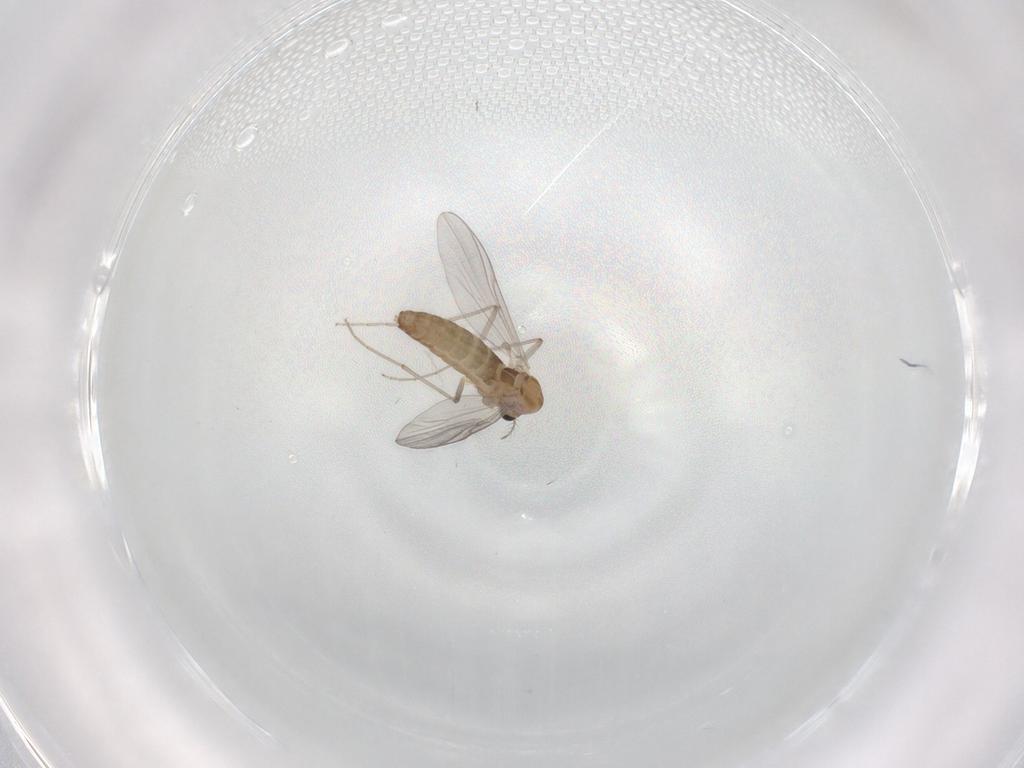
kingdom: Animalia
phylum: Arthropoda
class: Insecta
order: Diptera
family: Chironomidae
